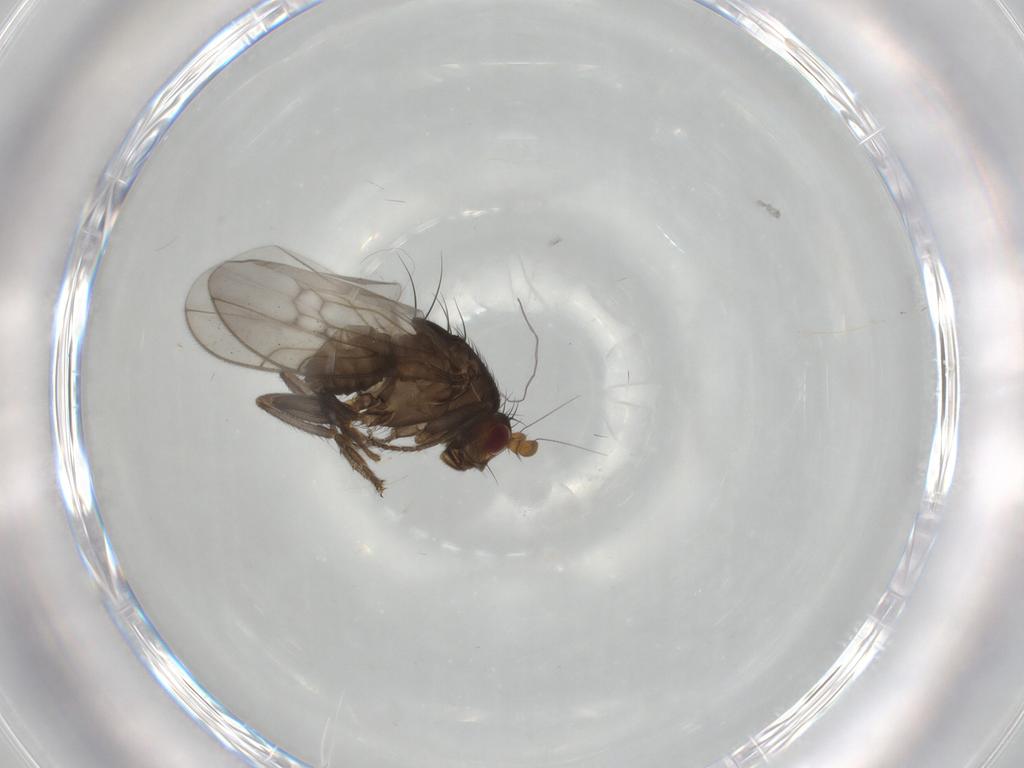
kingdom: Animalia
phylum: Arthropoda
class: Insecta
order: Diptera
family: Sphaeroceridae
